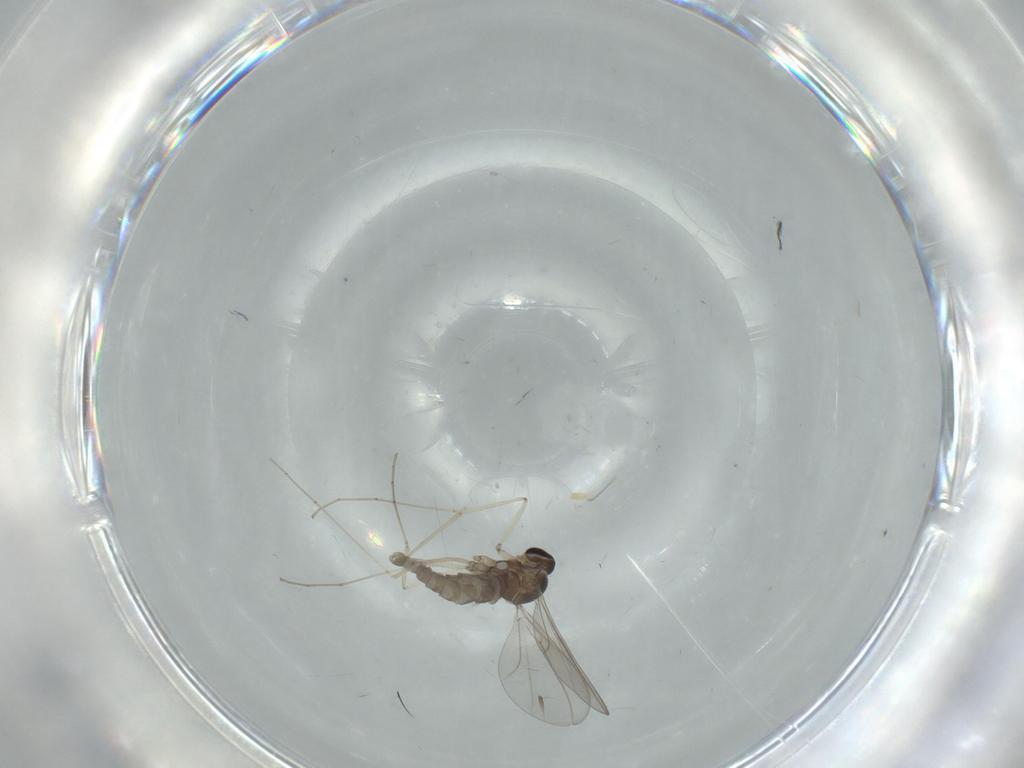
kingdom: Animalia
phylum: Arthropoda
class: Insecta
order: Diptera
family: Cecidomyiidae
